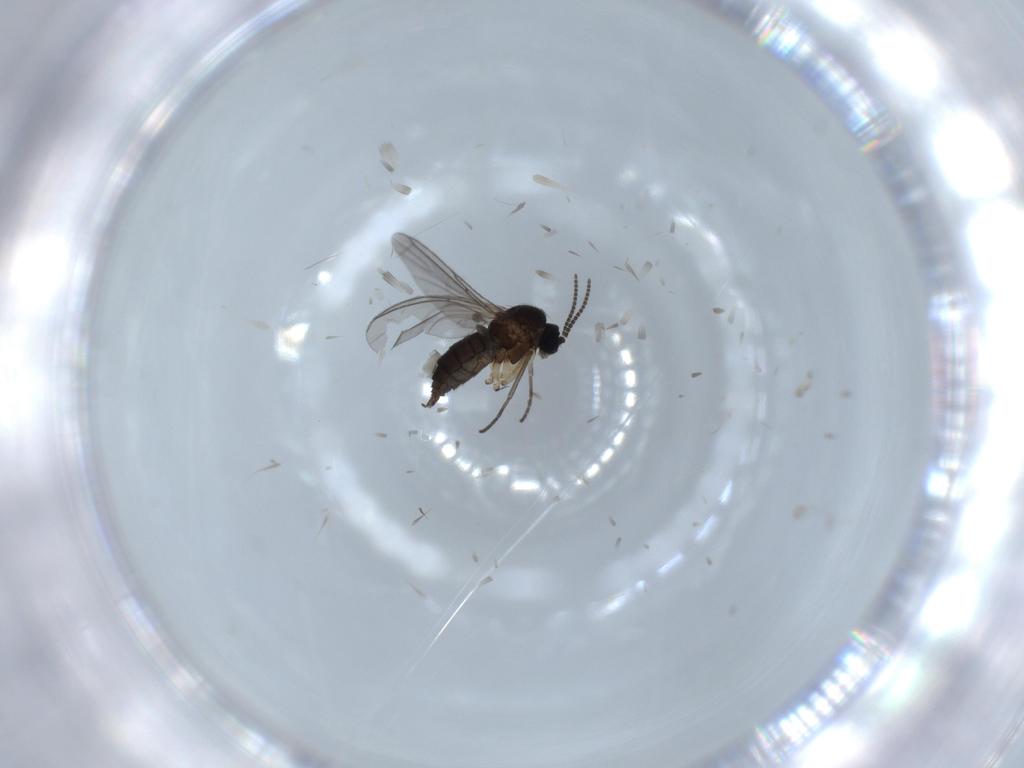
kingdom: Animalia
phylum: Arthropoda
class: Insecta
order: Diptera
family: Sciaridae
